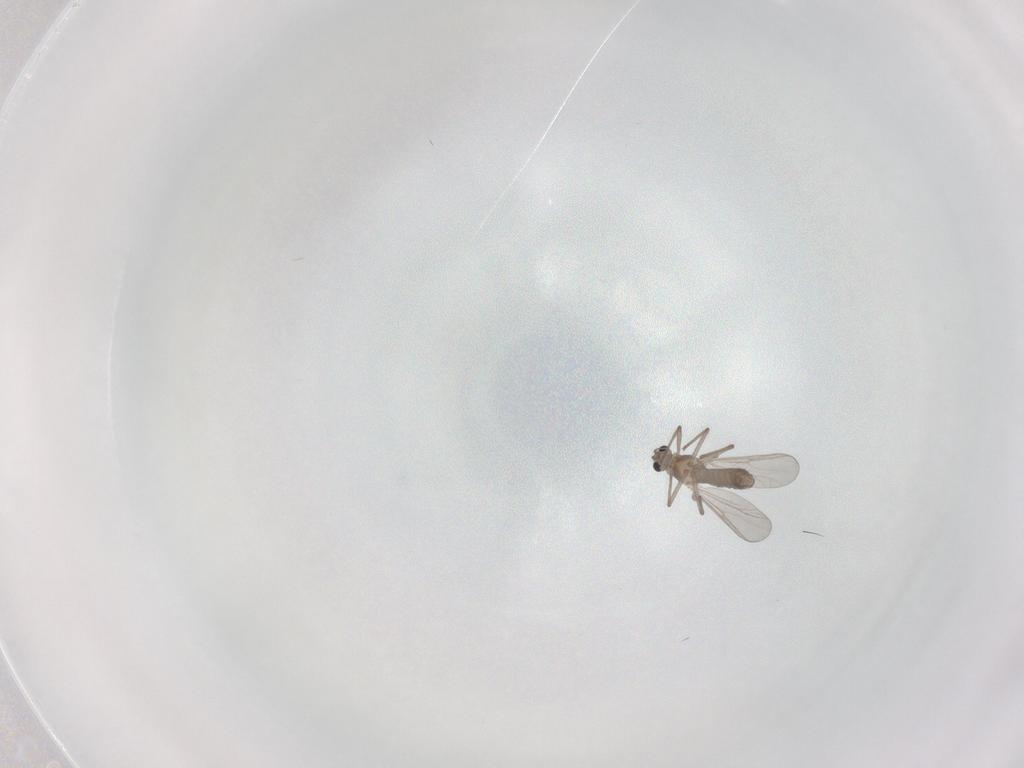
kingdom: Animalia
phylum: Arthropoda
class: Insecta
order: Diptera
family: Chironomidae
